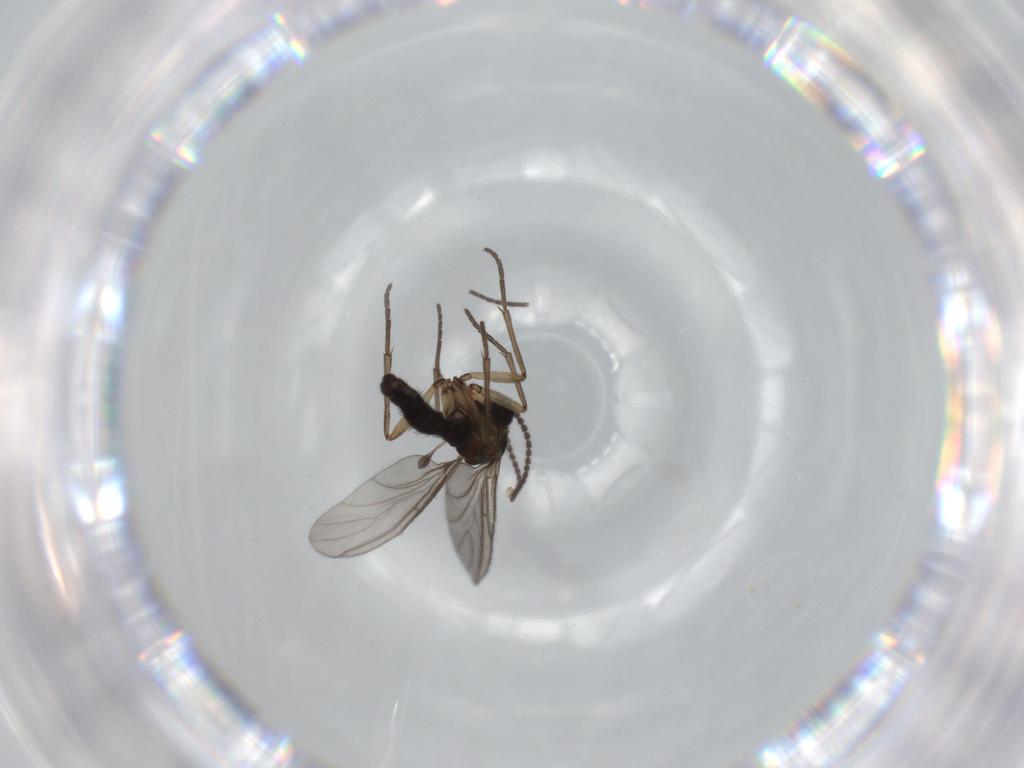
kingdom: Animalia
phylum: Arthropoda
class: Insecta
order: Diptera
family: Sciaridae
